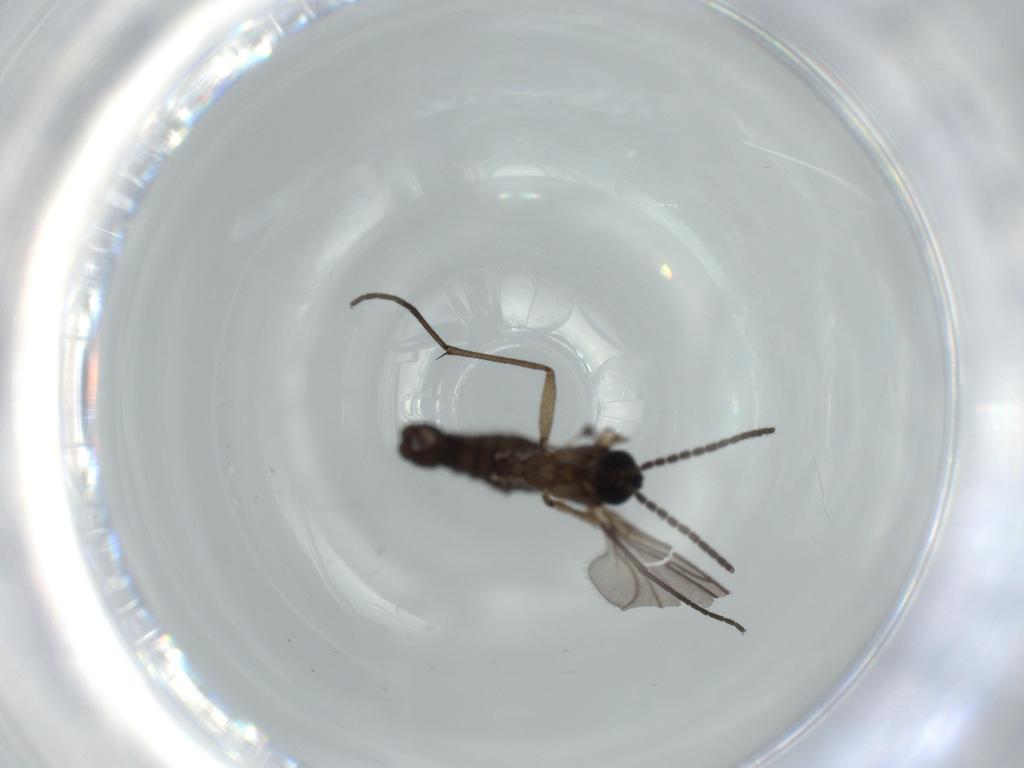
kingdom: Animalia
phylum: Arthropoda
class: Insecta
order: Diptera
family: Sciaridae
